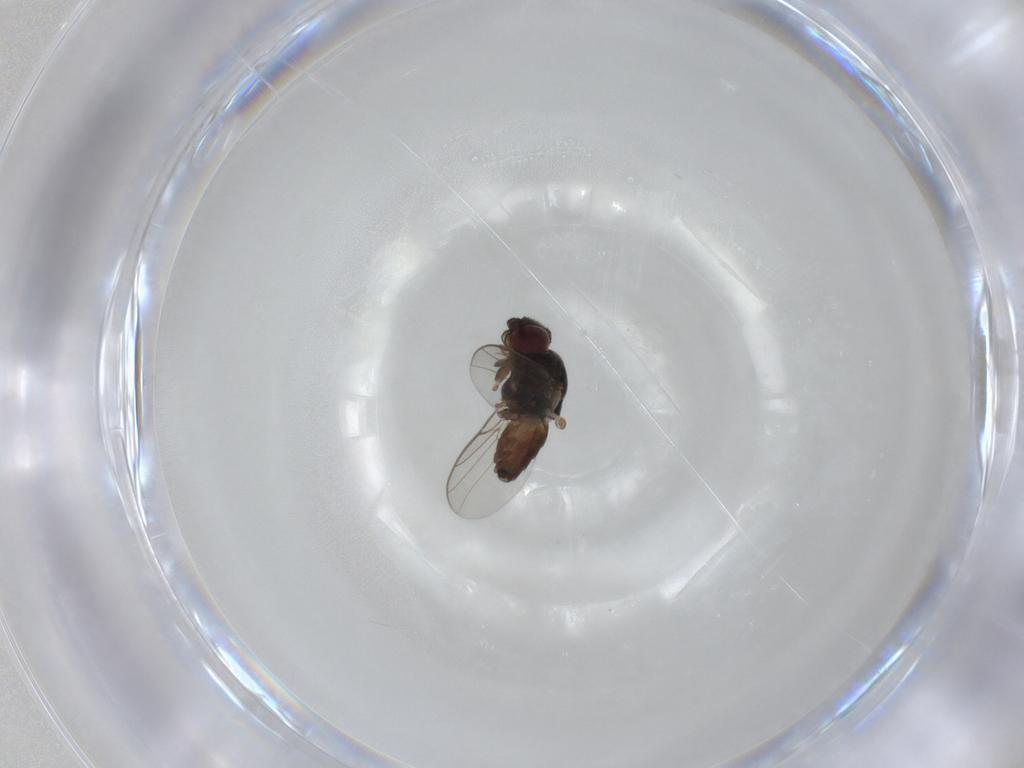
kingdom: Animalia
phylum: Arthropoda
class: Insecta
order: Diptera
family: Chloropidae
